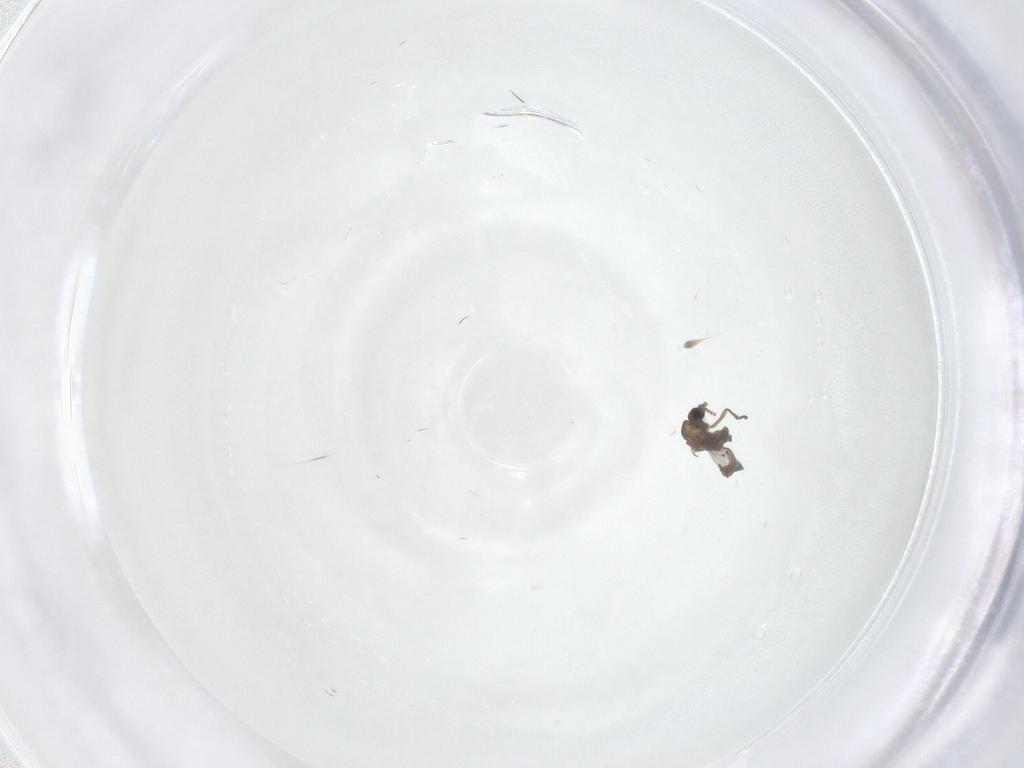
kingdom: Animalia
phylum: Arthropoda
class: Insecta
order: Diptera
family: Tabanidae
